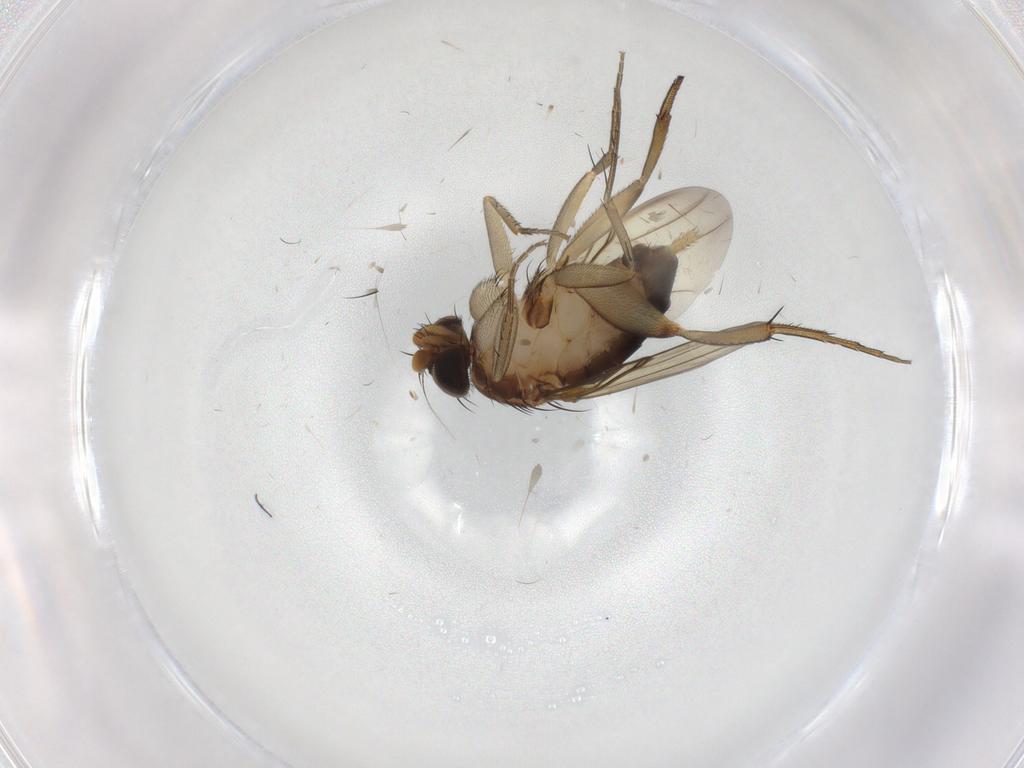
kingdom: Animalia
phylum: Arthropoda
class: Insecta
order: Diptera
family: Phoridae
